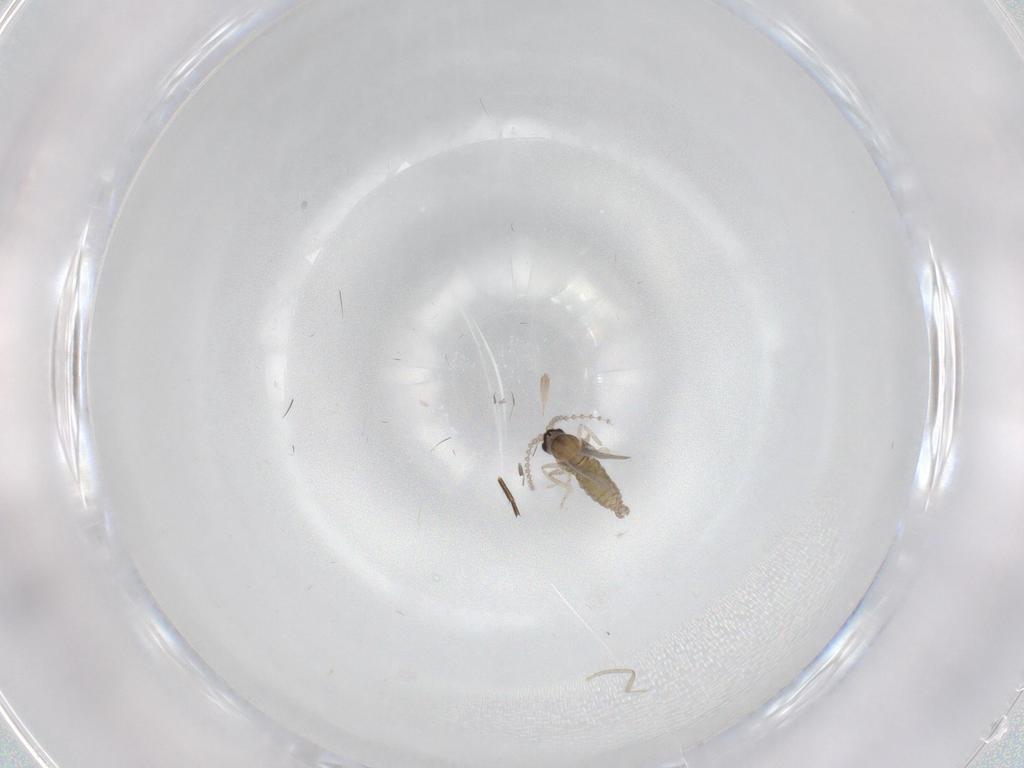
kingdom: Animalia
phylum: Arthropoda
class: Insecta
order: Diptera
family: Cecidomyiidae
